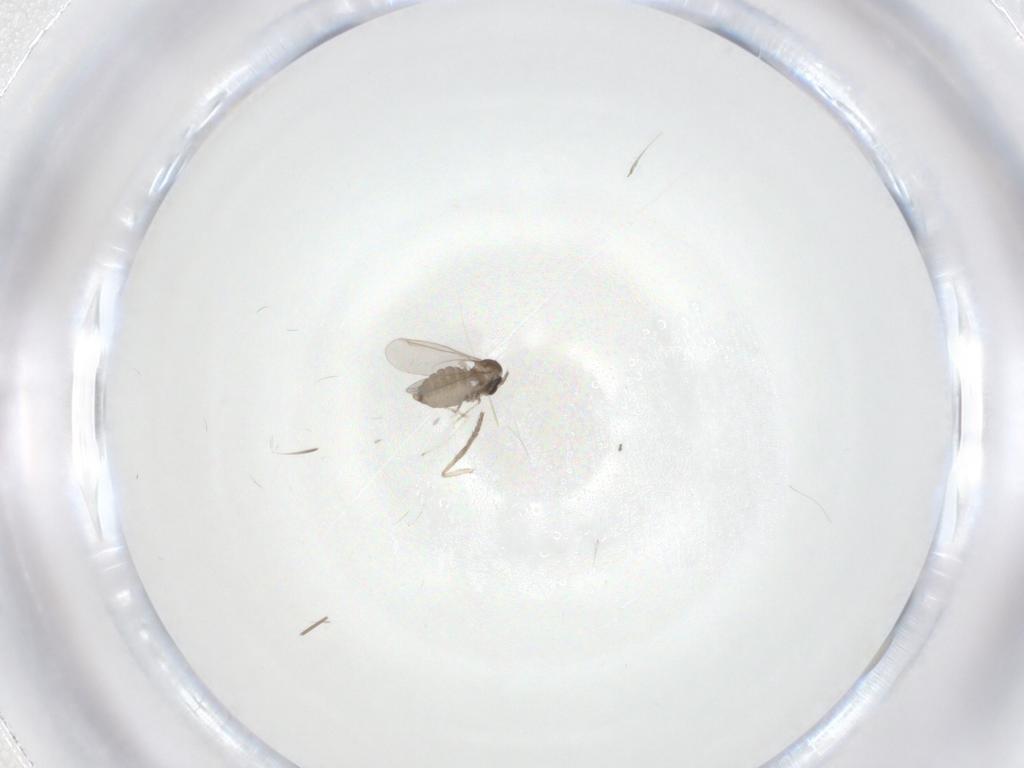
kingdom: Animalia
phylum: Arthropoda
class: Insecta
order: Diptera
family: Cecidomyiidae
